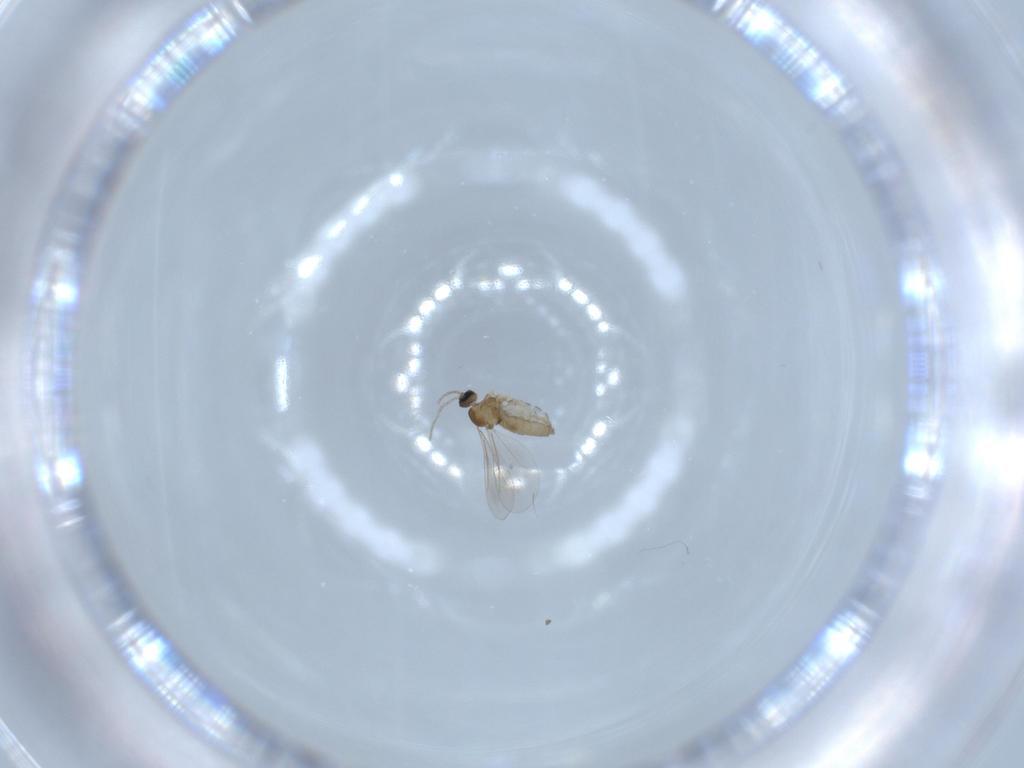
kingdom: Animalia
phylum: Arthropoda
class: Insecta
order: Diptera
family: Cecidomyiidae
